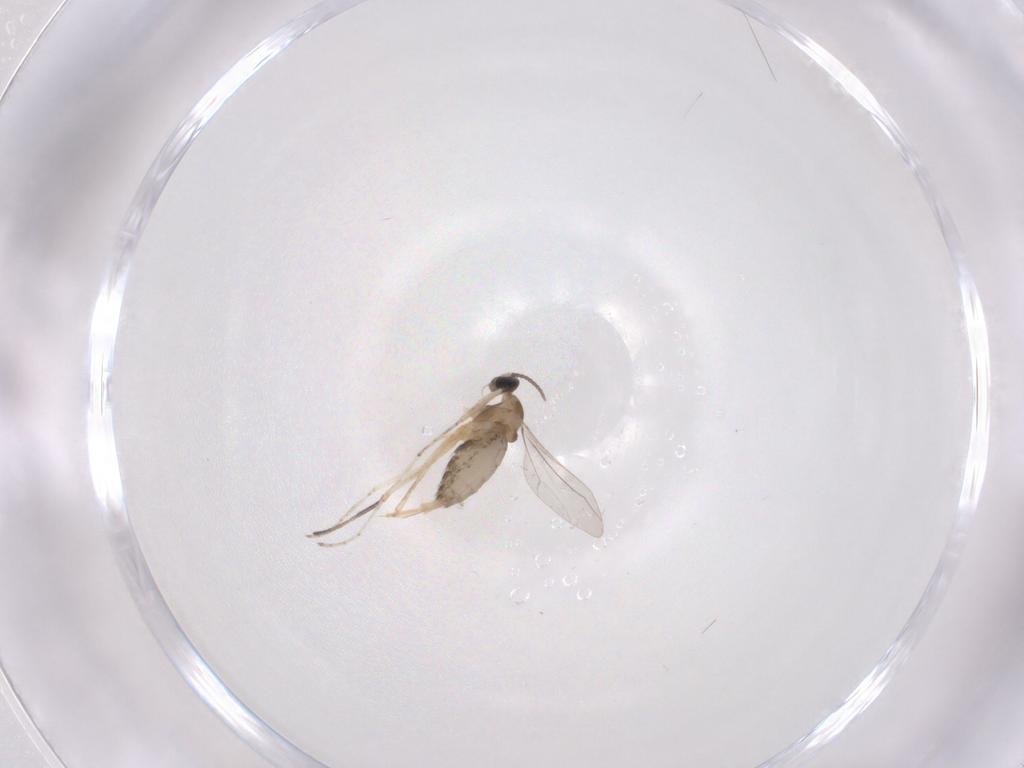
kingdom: Animalia
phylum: Arthropoda
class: Insecta
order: Diptera
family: Cecidomyiidae
